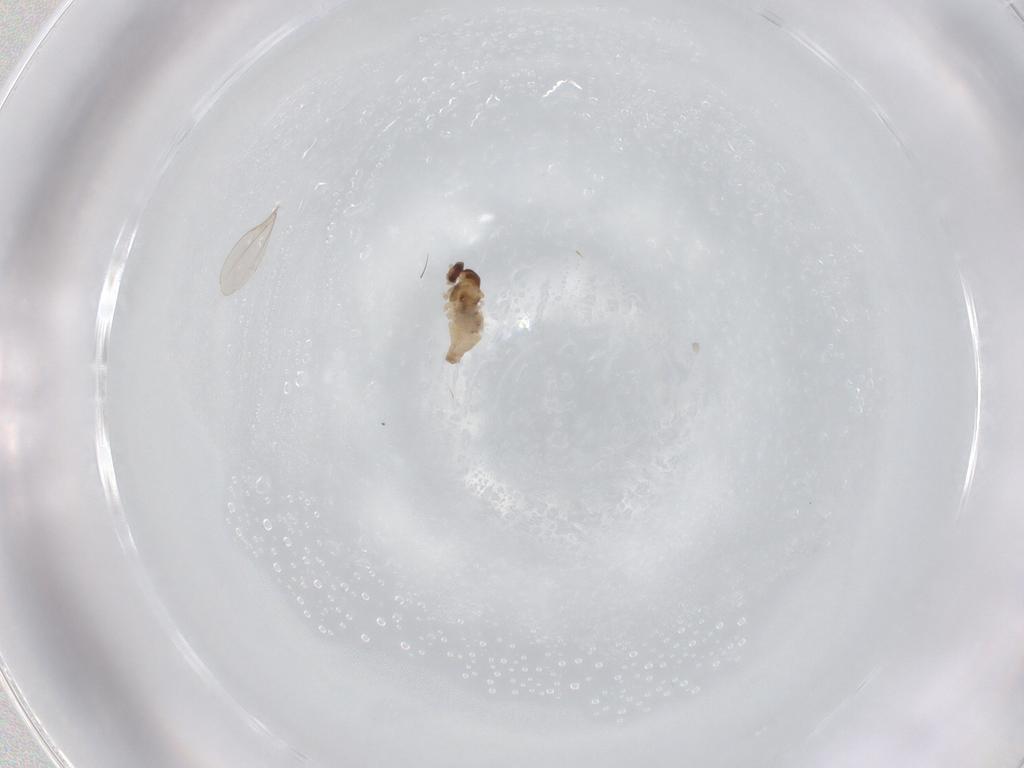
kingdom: Animalia
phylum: Arthropoda
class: Insecta
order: Diptera
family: Cecidomyiidae
